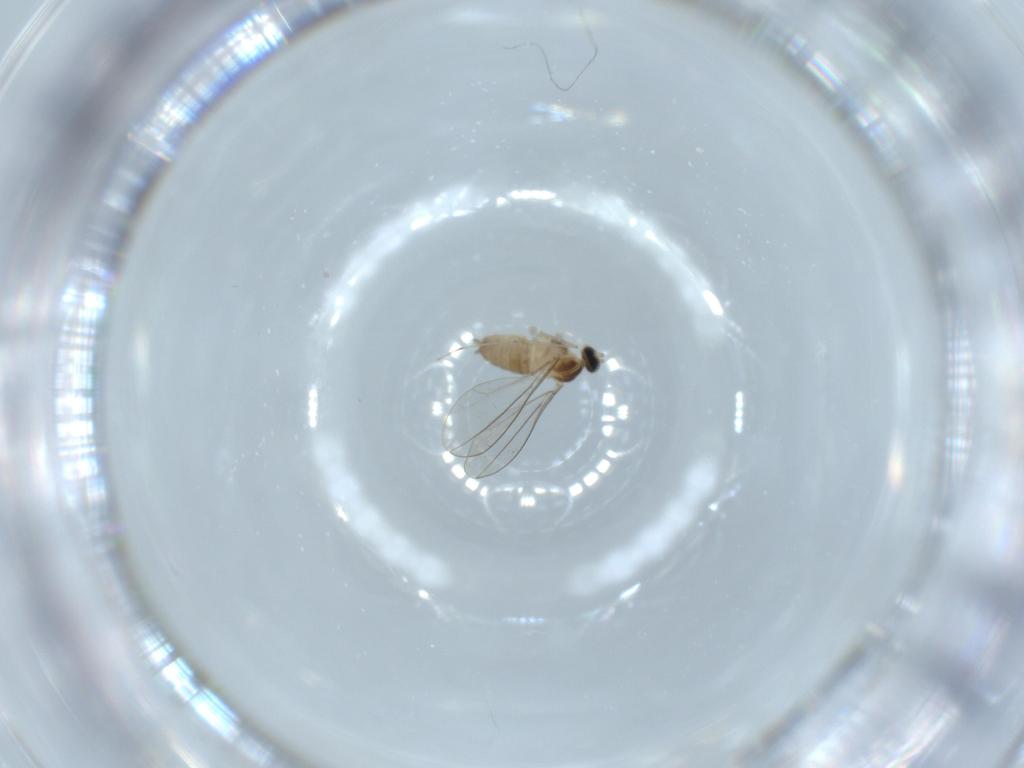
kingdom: Animalia
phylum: Arthropoda
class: Insecta
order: Diptera
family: Cecidomyiidae
